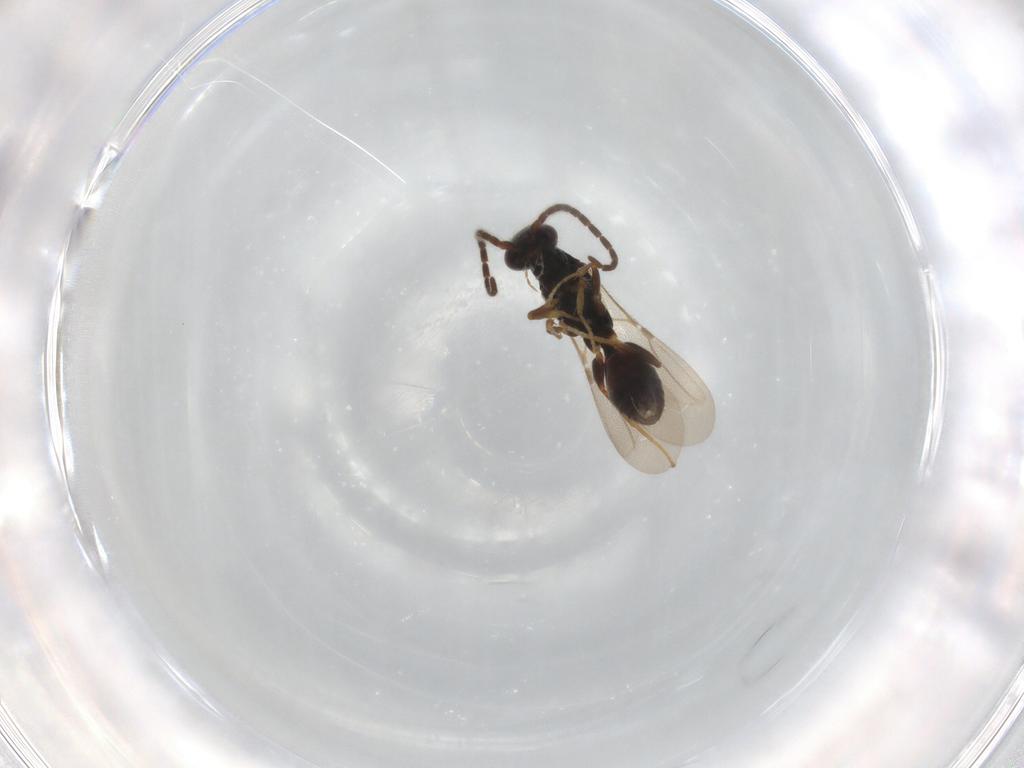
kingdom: Animalia
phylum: Arthropoda
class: Insecta
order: Hymenoptera
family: Bethylidae
